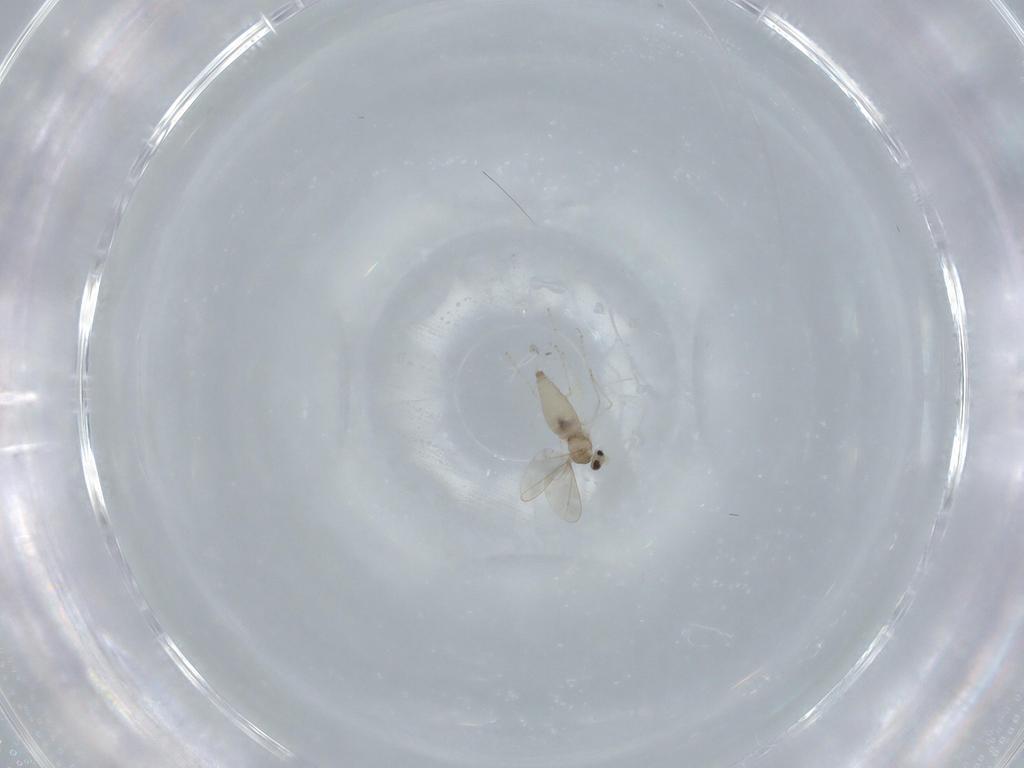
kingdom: Animalia
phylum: Arthropoda
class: Insecta
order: Diptera
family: Cecidomyiidae
